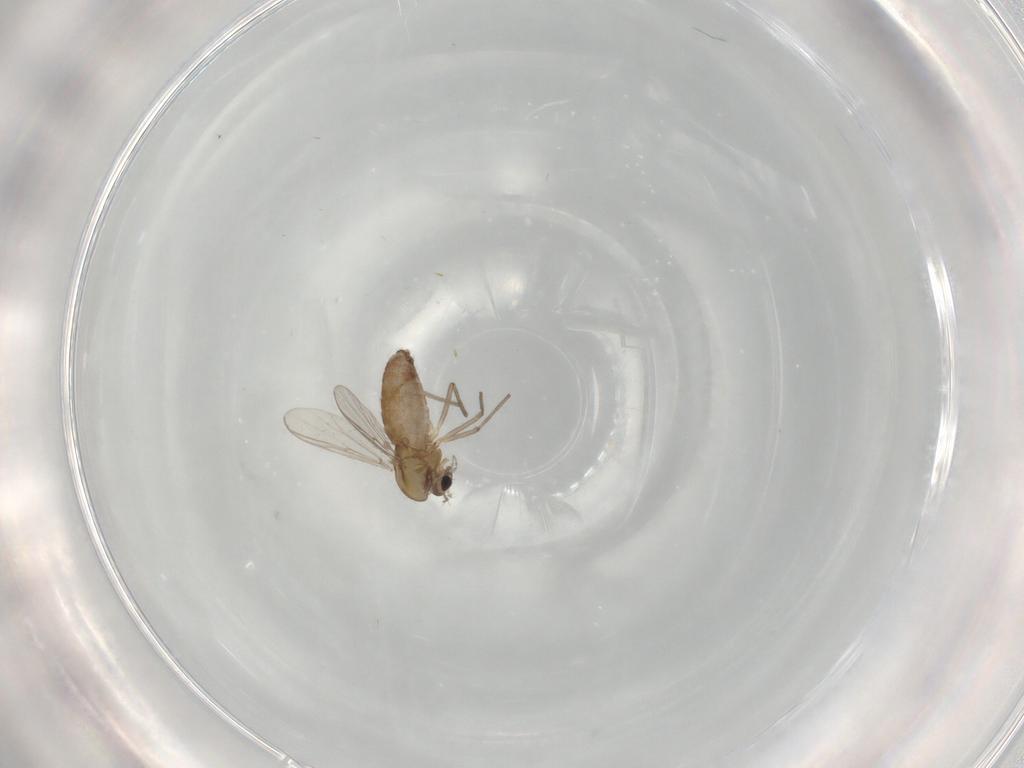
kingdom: Animalia
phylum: Arthropoda
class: Insecta
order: Diptera
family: Chironomidae
